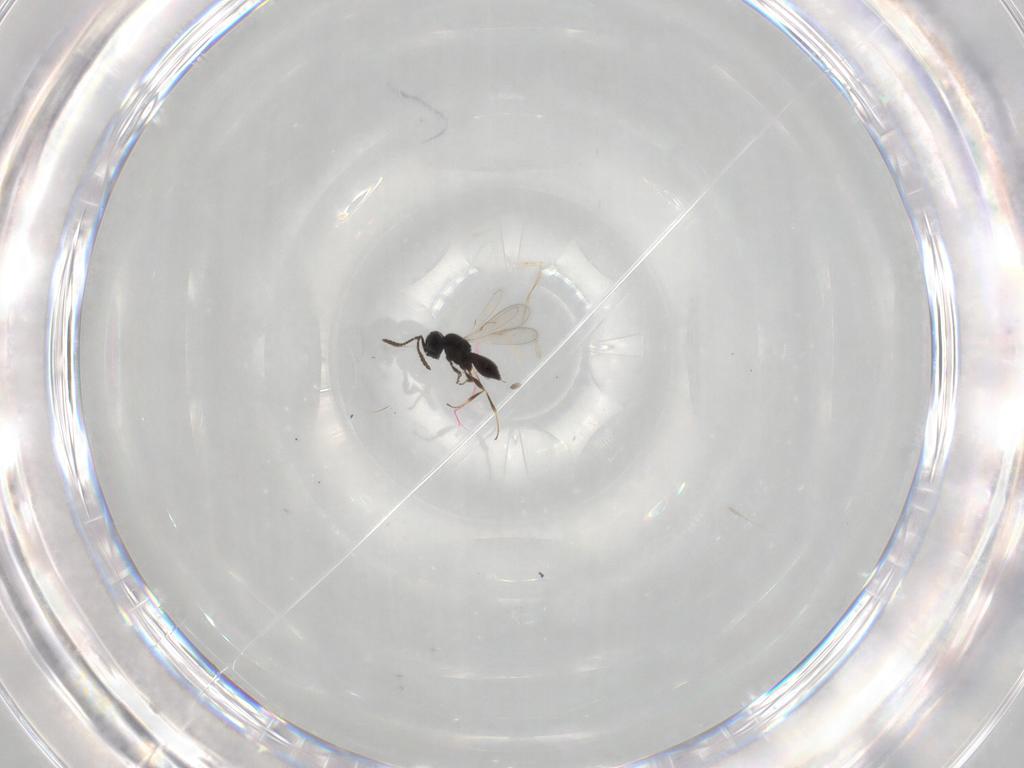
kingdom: Animalia
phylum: Arthropoda
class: Insecta
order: Hymenoptera
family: Scelionidae
